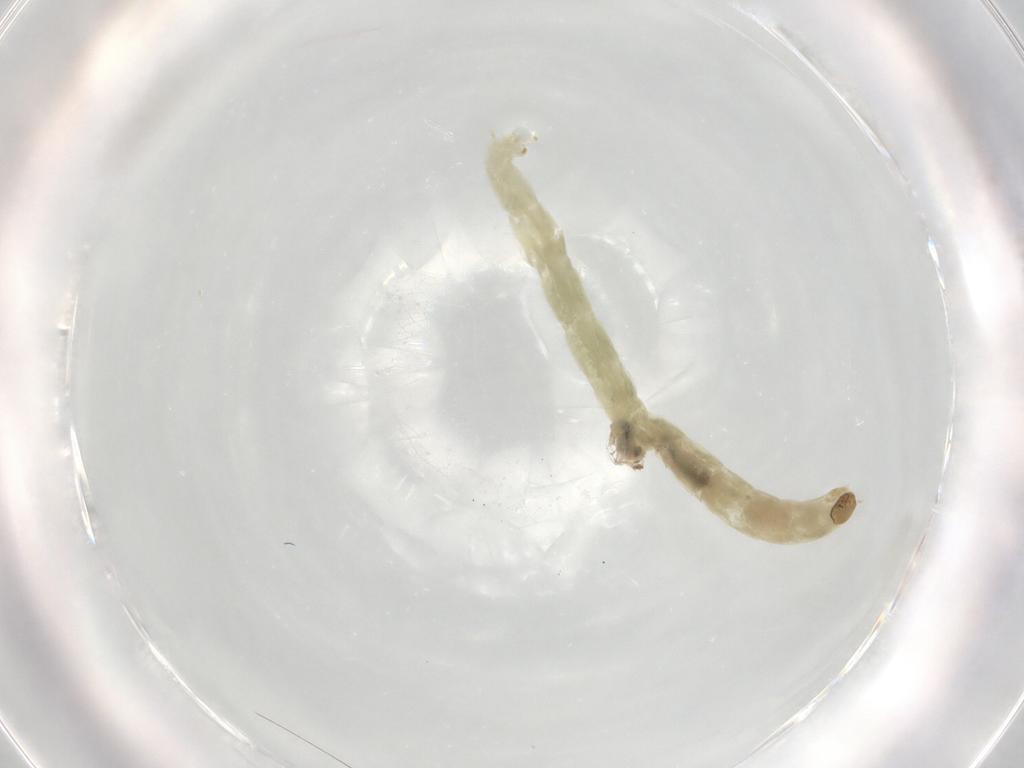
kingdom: Animalia
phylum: Arthropoda
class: Insecta
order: Diptera
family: Chironomidae
